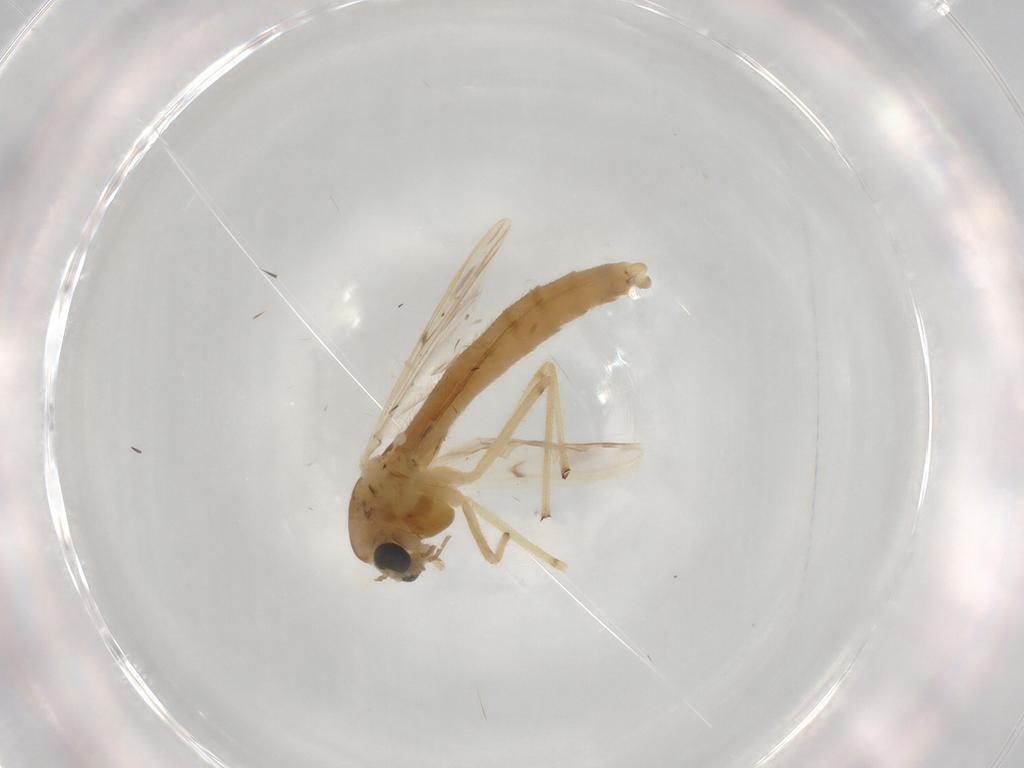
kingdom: Animalia
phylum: Arthropoda
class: Insecta
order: Diptera
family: Chironomidae
